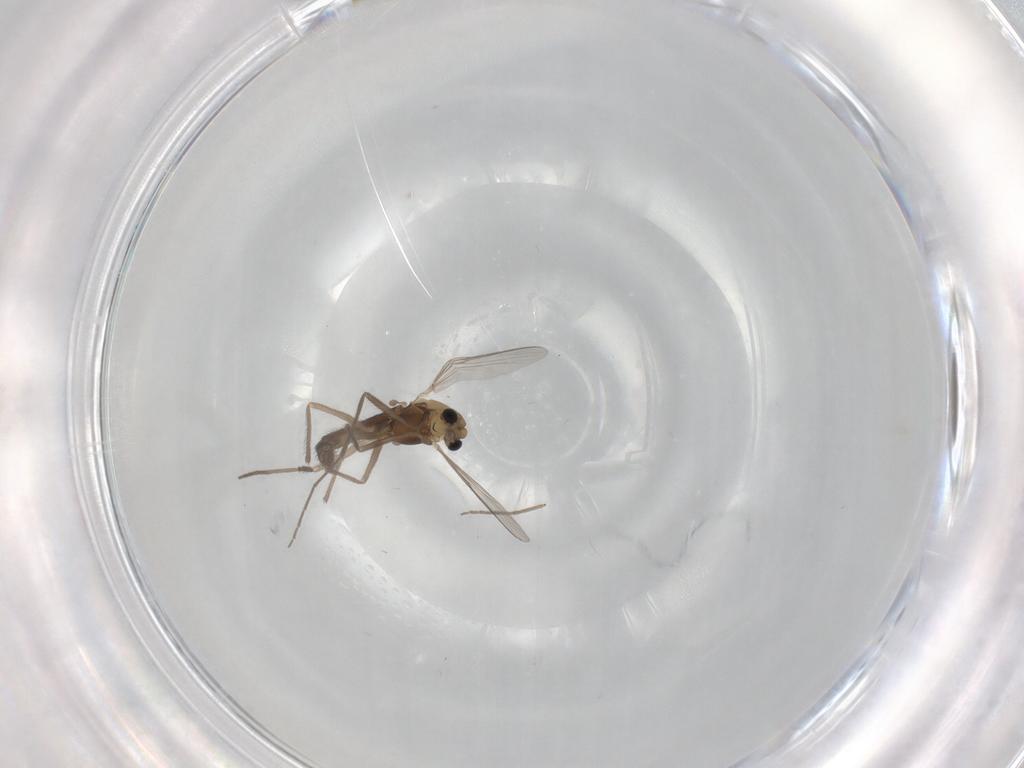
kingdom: Animalia
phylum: Arthropoda
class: Insecta
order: Diptera
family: Chironomidae
